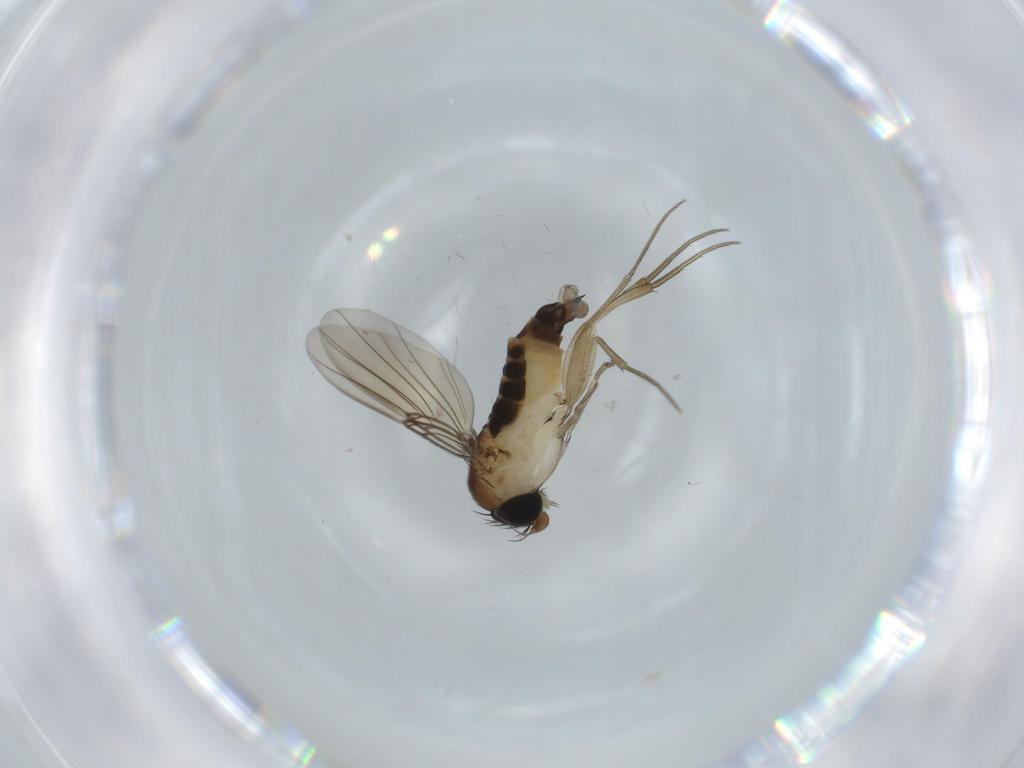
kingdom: Animalia
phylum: Arthropoda
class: Insecta
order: Diptera
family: Phoridae
